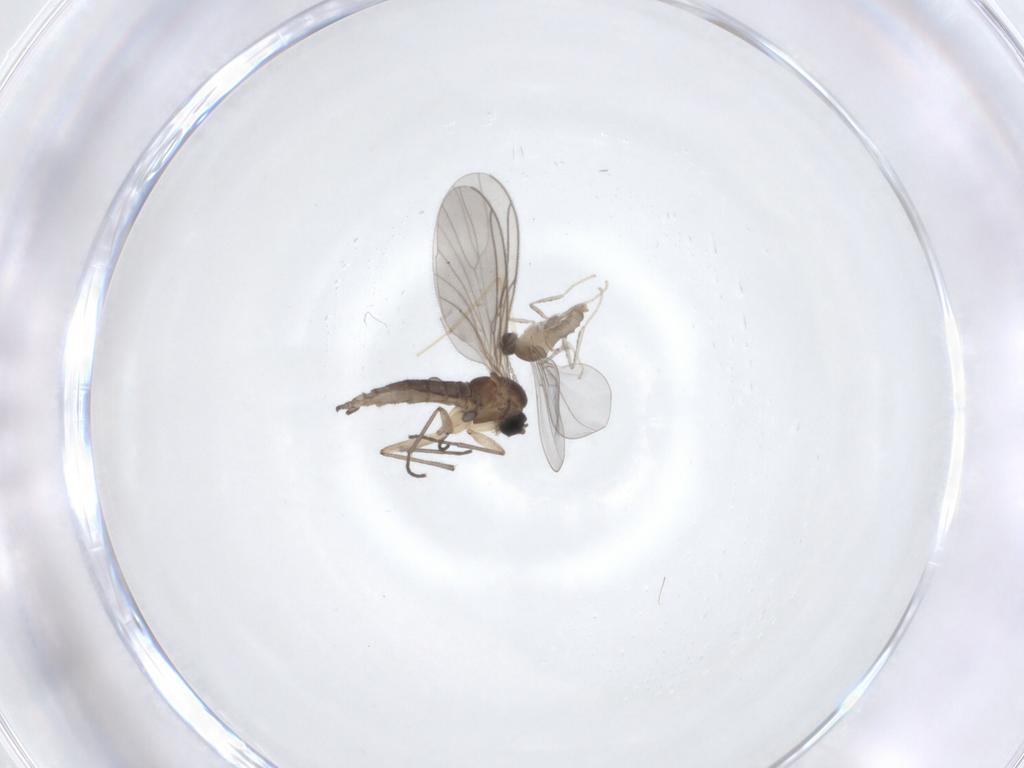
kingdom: Animalia
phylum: Arthropoda
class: Insecta
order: Diptera
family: Cecidomyiidae
